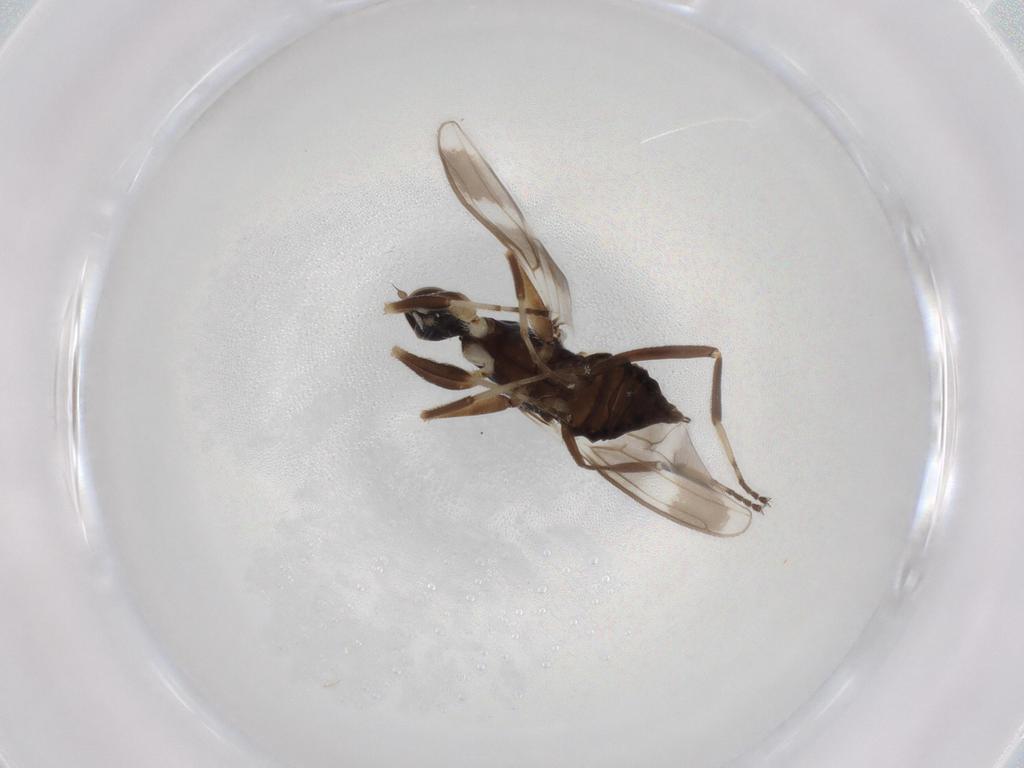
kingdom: Animalia
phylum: Arthropoda
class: Insecta
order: Diptera
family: Hybotidae
